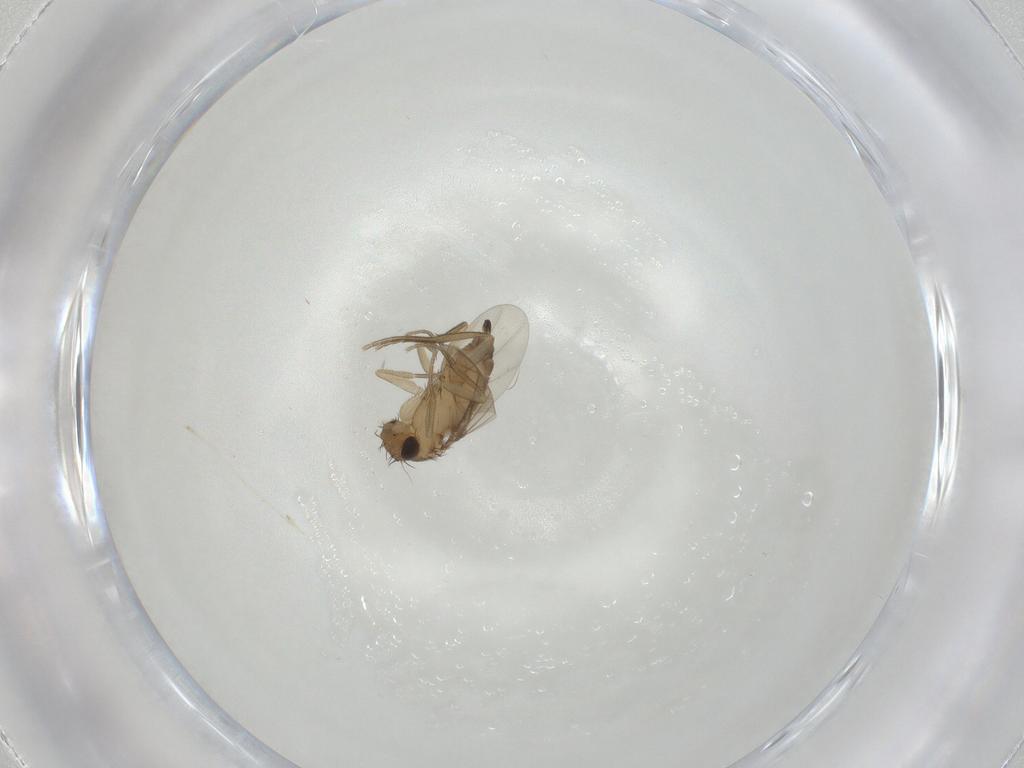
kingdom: Animalia
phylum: Arthropoda
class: Insecta
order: Diptera
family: Phoridae
